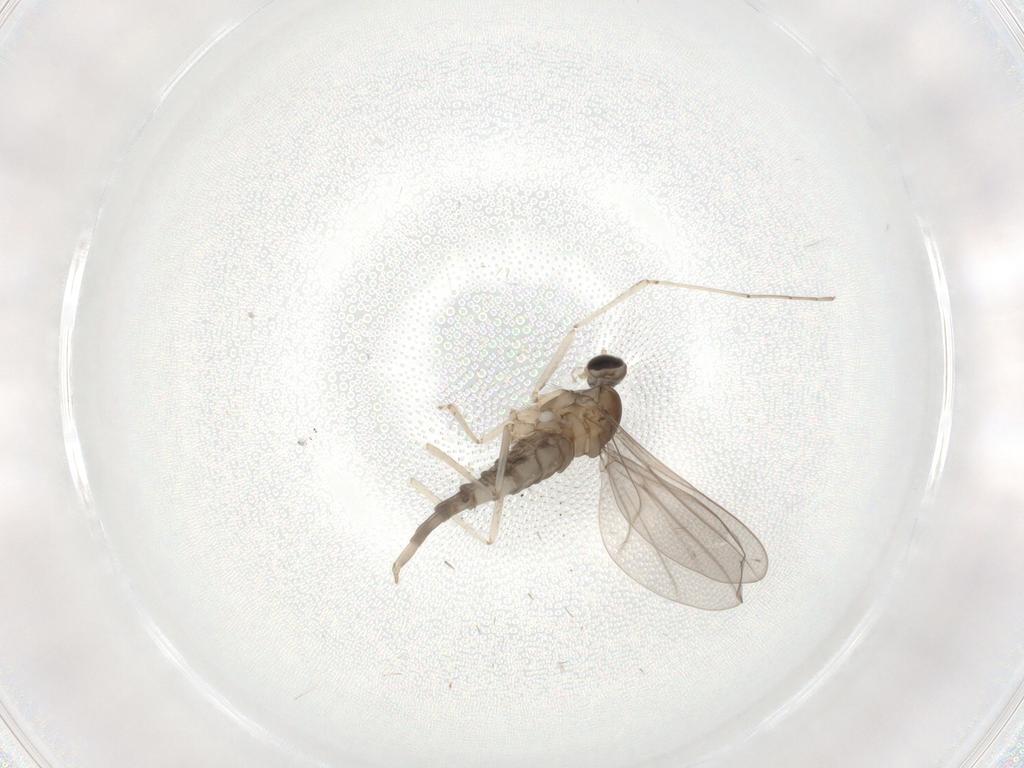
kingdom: Animalia
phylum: Arthropoda
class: Insecta
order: Diptera
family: Cecidomyiidae
